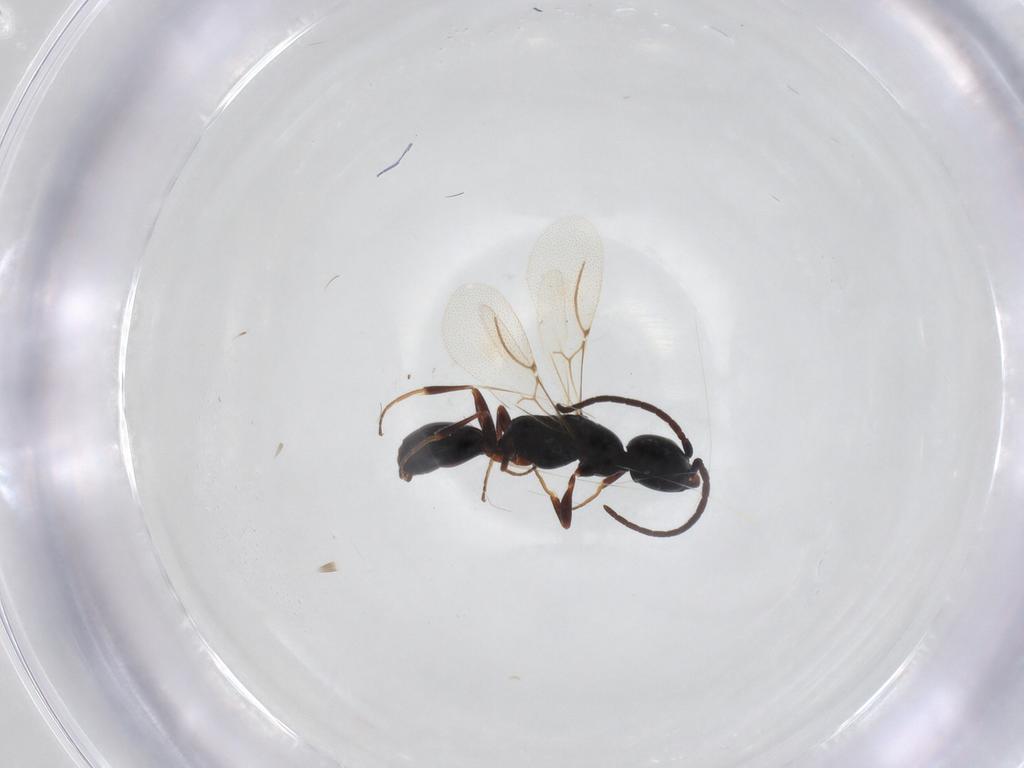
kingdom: Animalia
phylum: Arthropoda
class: Insecta
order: Hymenoptera
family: Bethylidae
